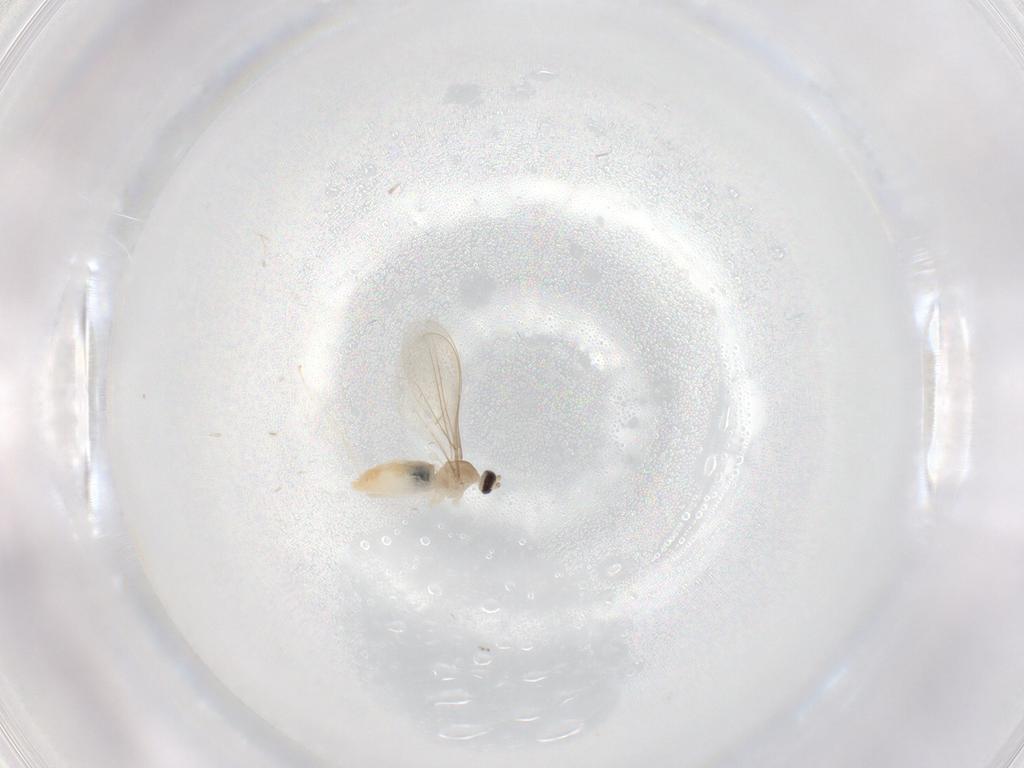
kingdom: Animalia
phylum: Arthropoda
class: Insecta
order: Diptera
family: Cecidomyiidae
